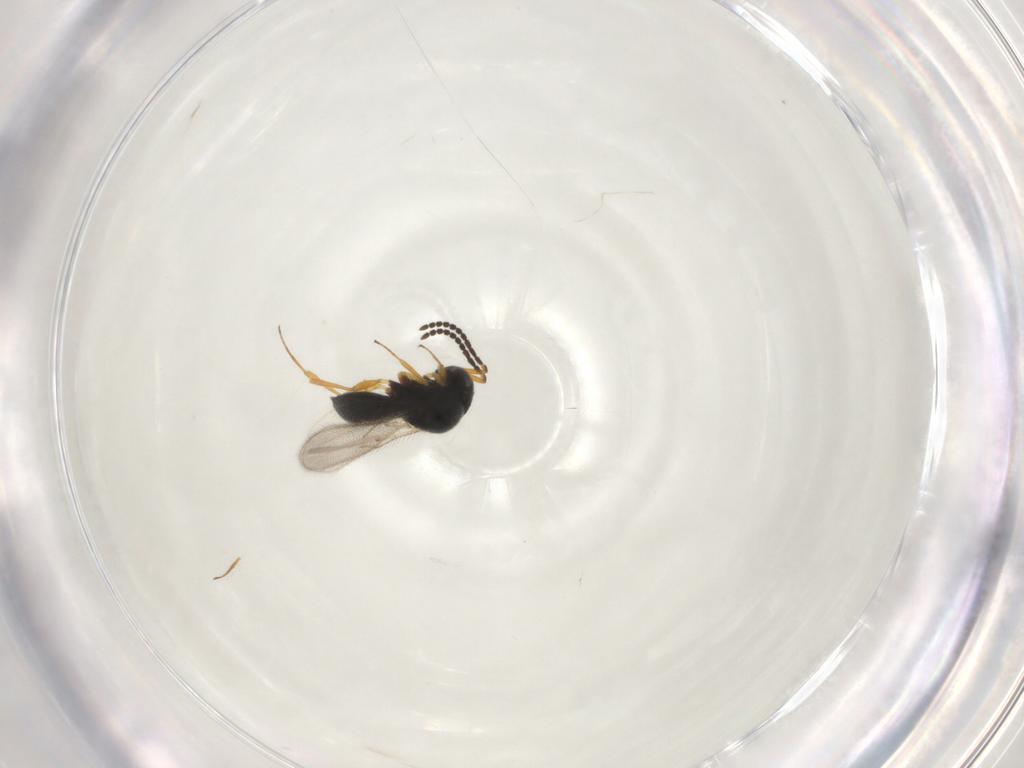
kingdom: Animalia
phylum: Arthropoda
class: Insecta
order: Hymenoptera
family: Scelionidae
